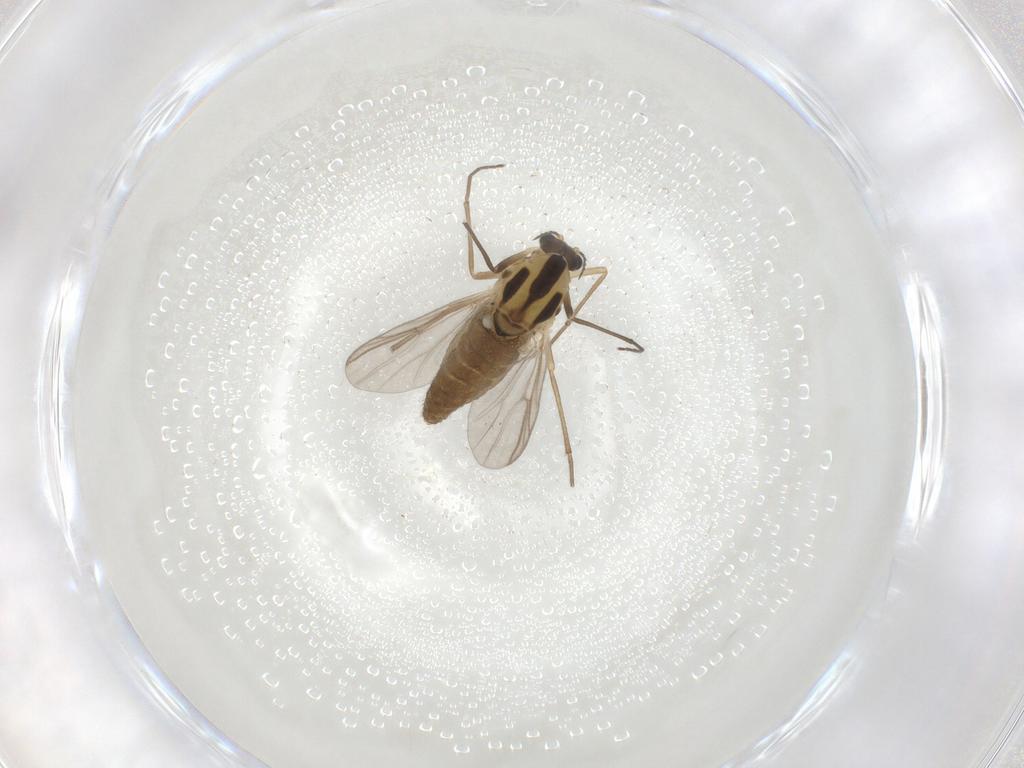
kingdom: Animalia
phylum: Arthropoda
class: Insecta
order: Diptera
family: Chironomidae
